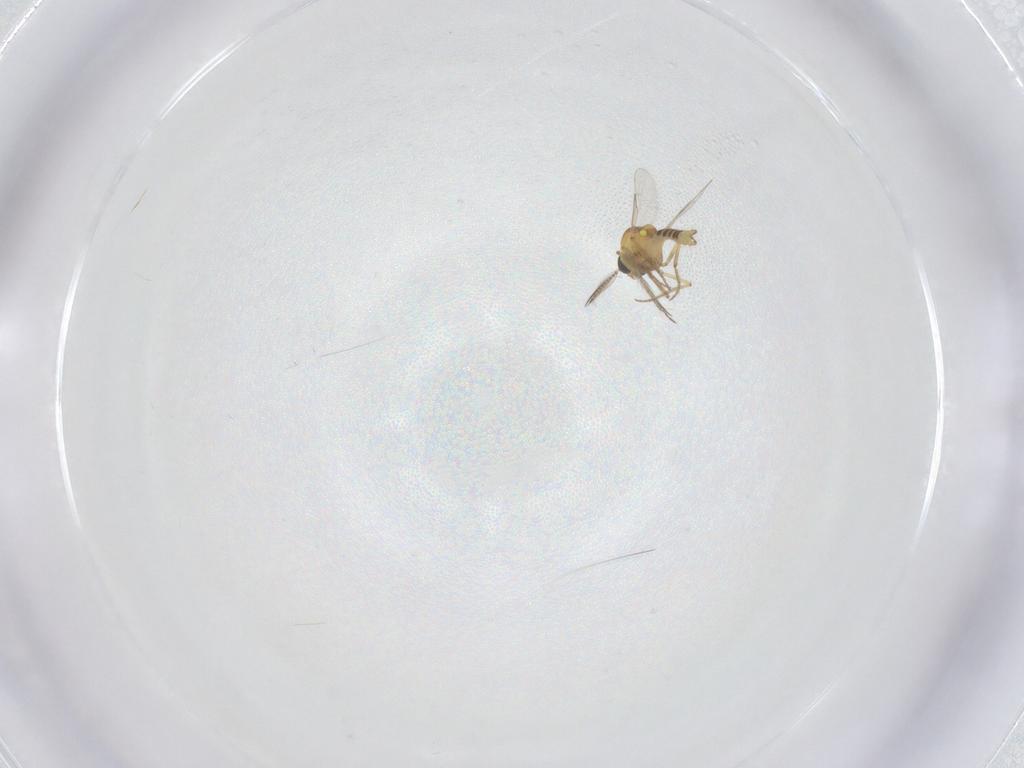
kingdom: Animalia
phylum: Arthropoda
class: Insecta
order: Diptera
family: Ceratopogonidae
